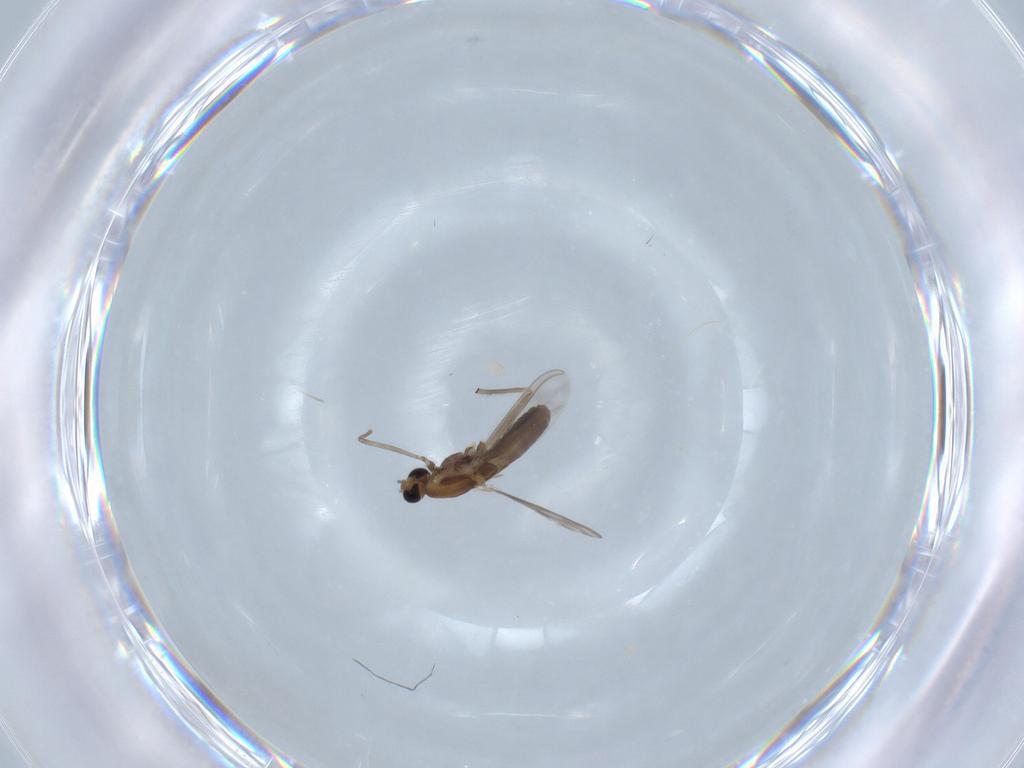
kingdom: Animalia
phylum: Arthropoda
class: Insecta
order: Diptera
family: Chironomidae
